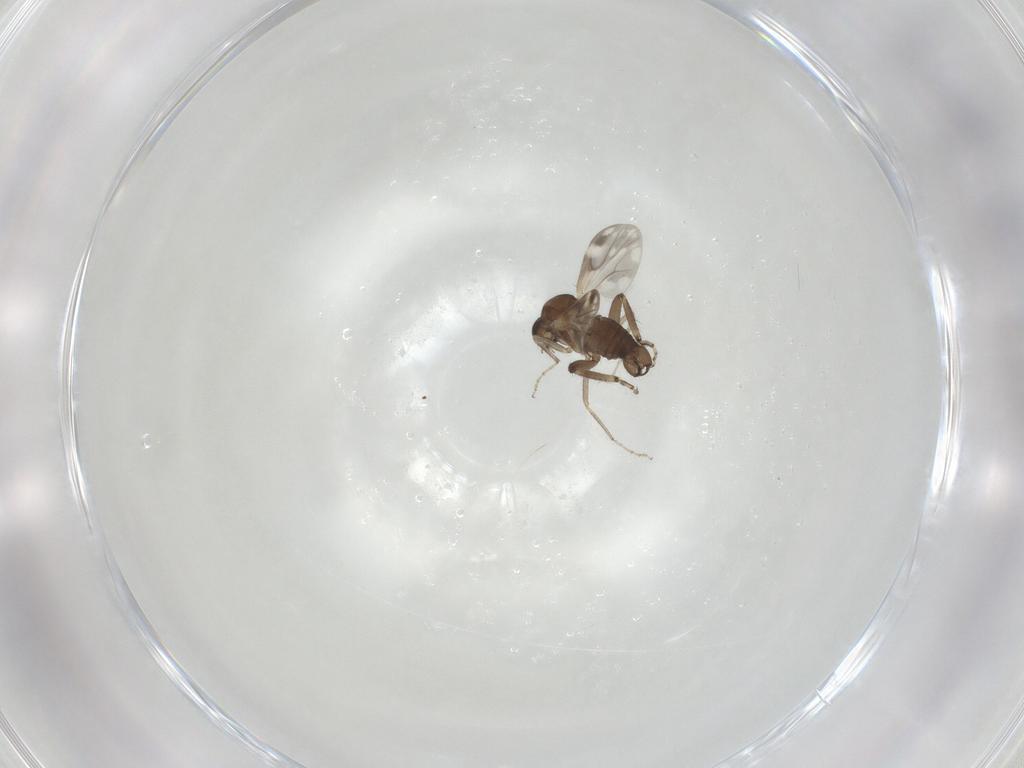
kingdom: Animalia
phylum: Arthropoda
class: Insecta
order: Diptera
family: Ceratopogonidae
